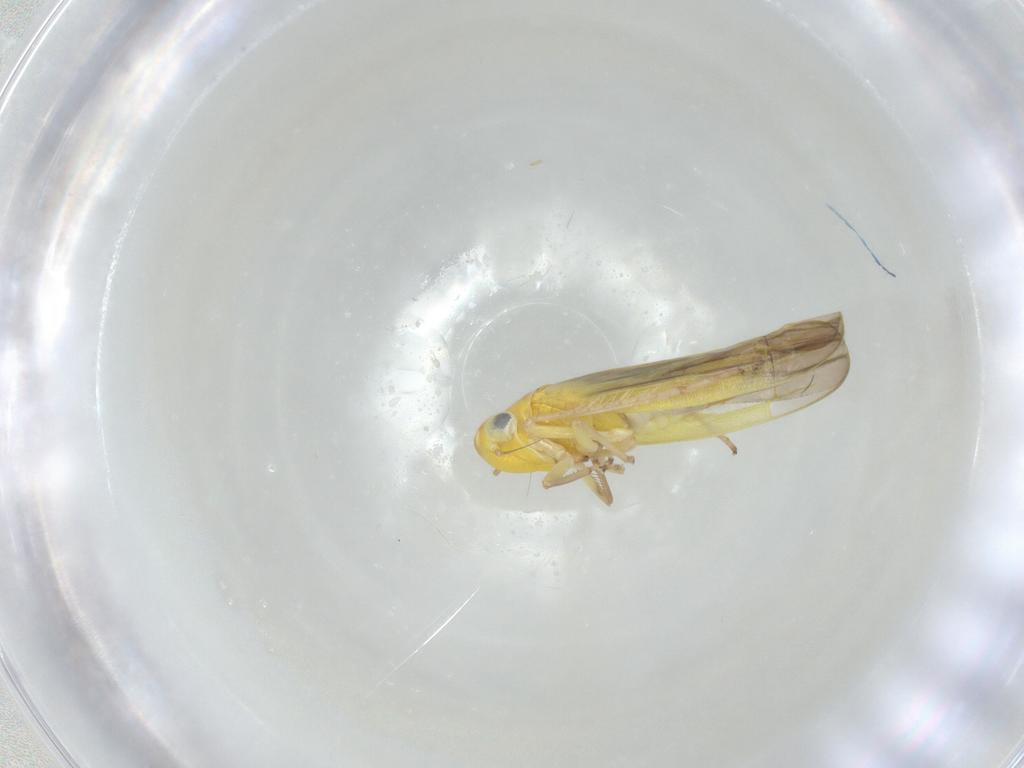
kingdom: Animalia
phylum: Arthropoda
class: Insecta
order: Hemiptera
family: Cicadellidae
